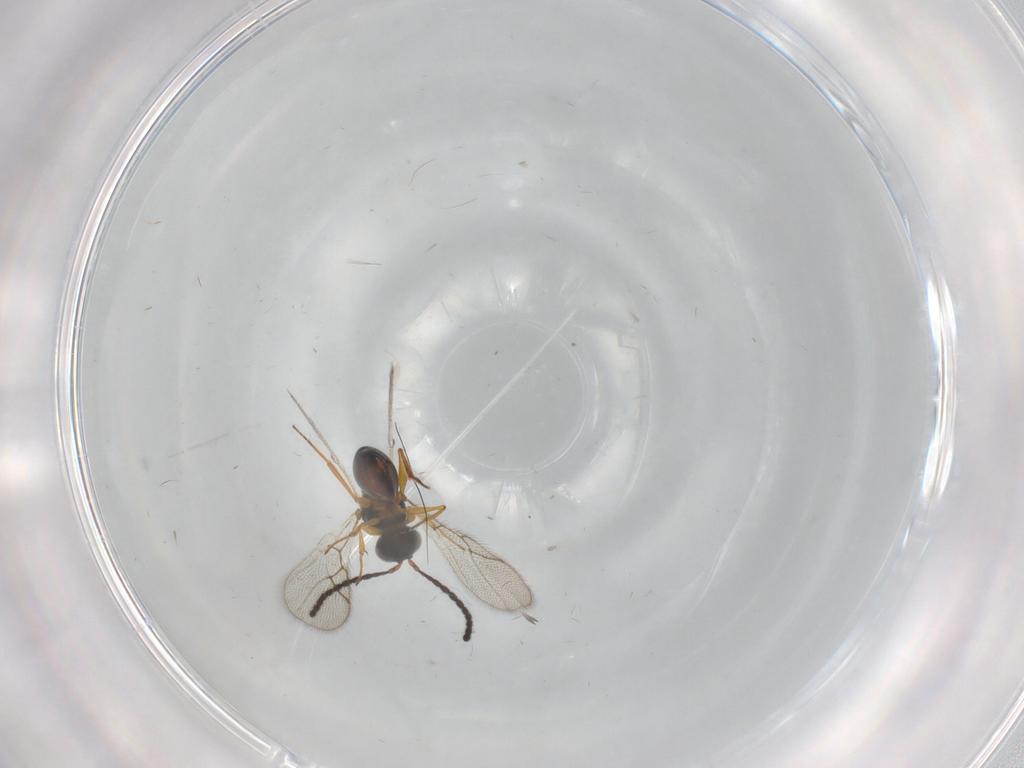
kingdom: Animalia
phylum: Arthropoda
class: Insecta
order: Hymenoptera
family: Figitidae
